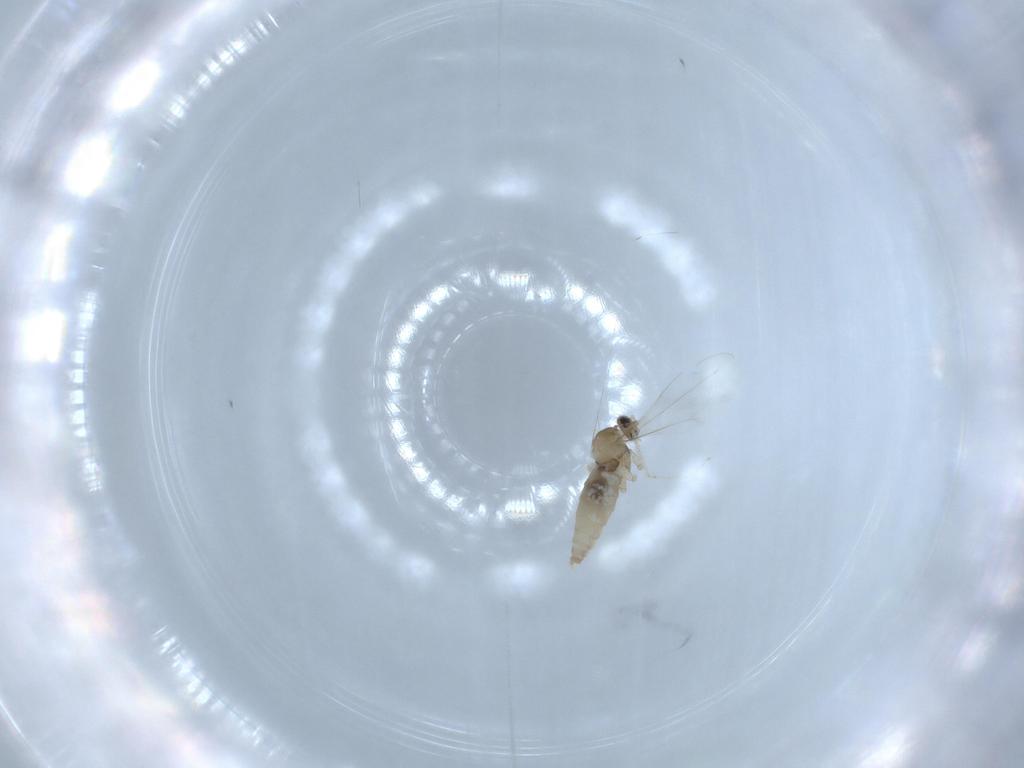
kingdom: Animalia
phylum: Arthropoda
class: Insecta
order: Diptera
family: Cecidomyiidae
